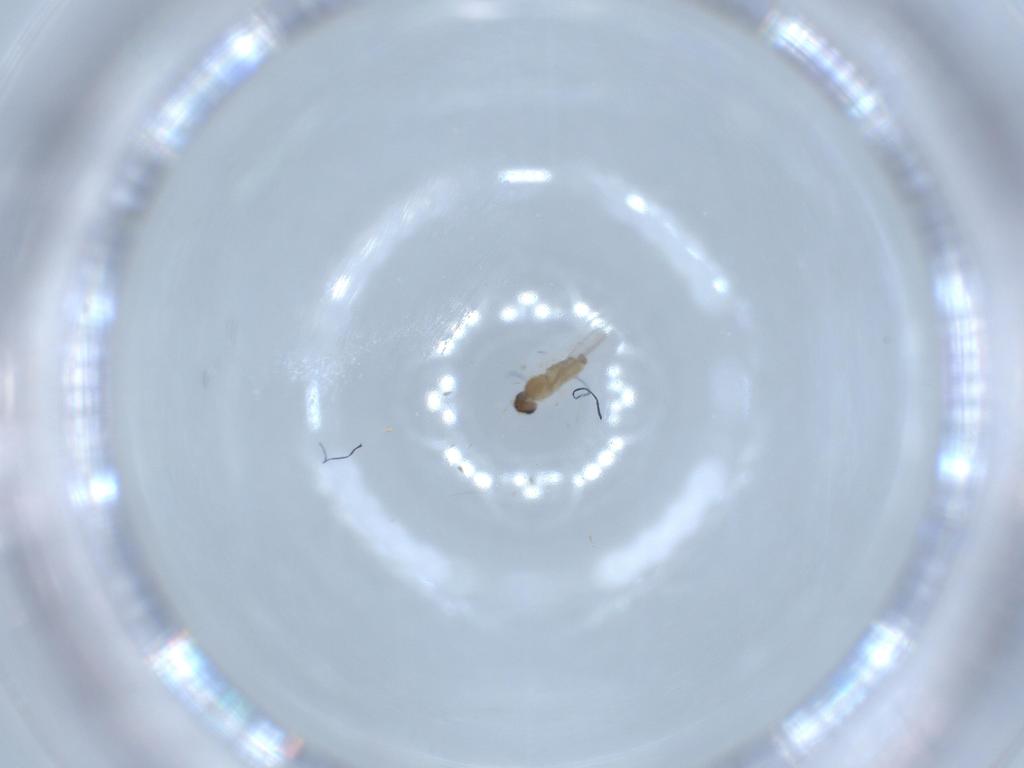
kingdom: Animalia
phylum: Arthropoda
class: Insecta
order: Diptera
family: Cecidomyiidae
